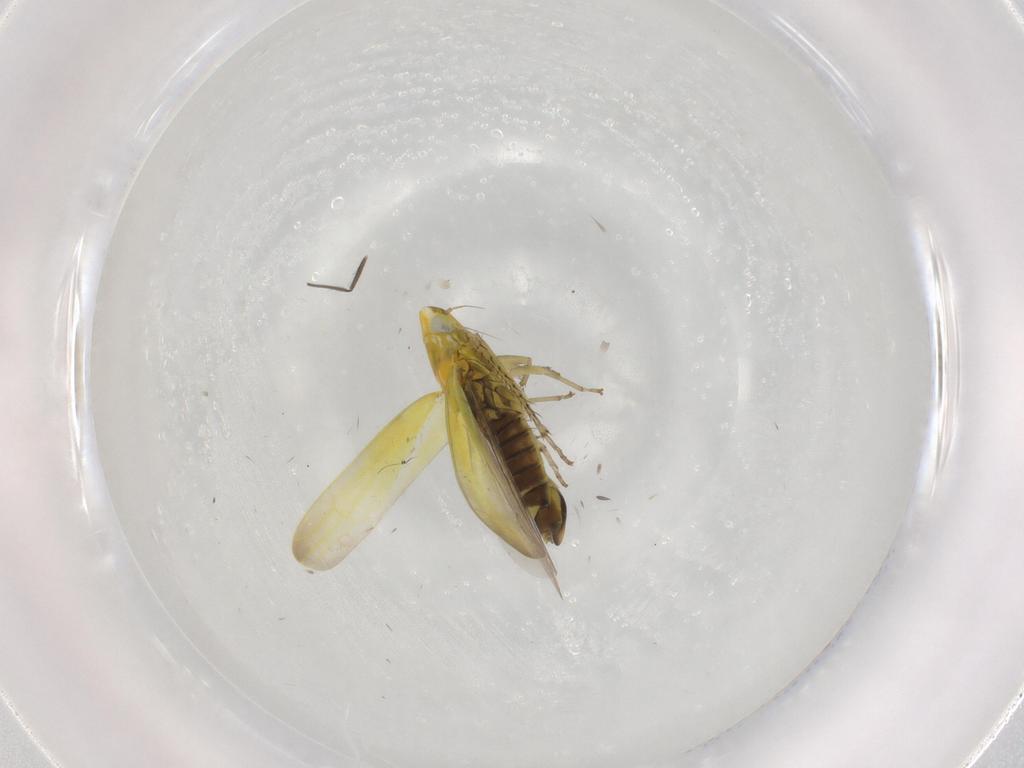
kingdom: Animalia
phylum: Arthropoda
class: Insecta
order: Hemiptera
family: Cicadellidae
